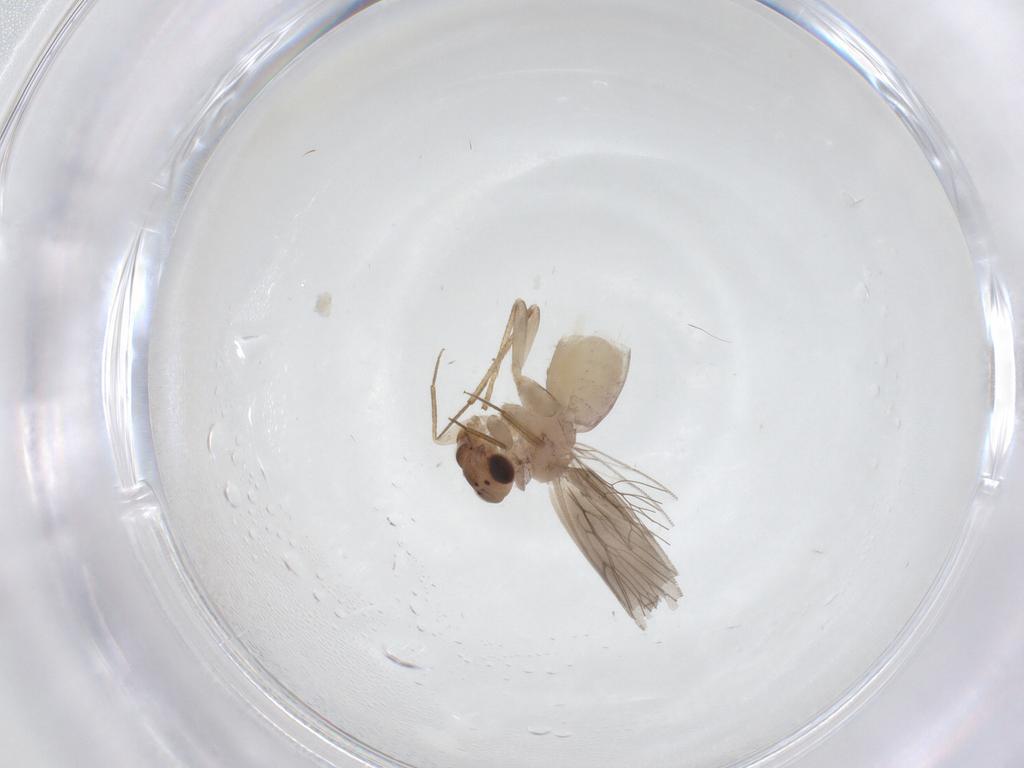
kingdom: Animalia
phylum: Arthropoda
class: Insecta
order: Psocodea
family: Lepidopsocidae
